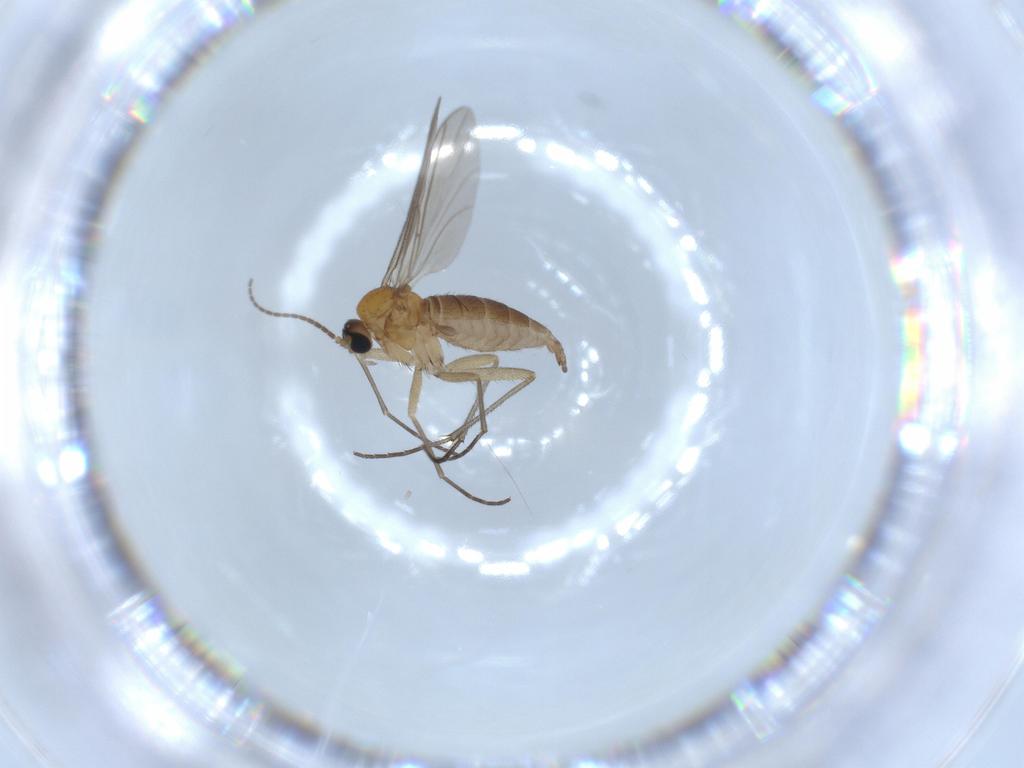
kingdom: Animalia
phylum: Arthropoda
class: Insecta
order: Diptera
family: Sciaridae
